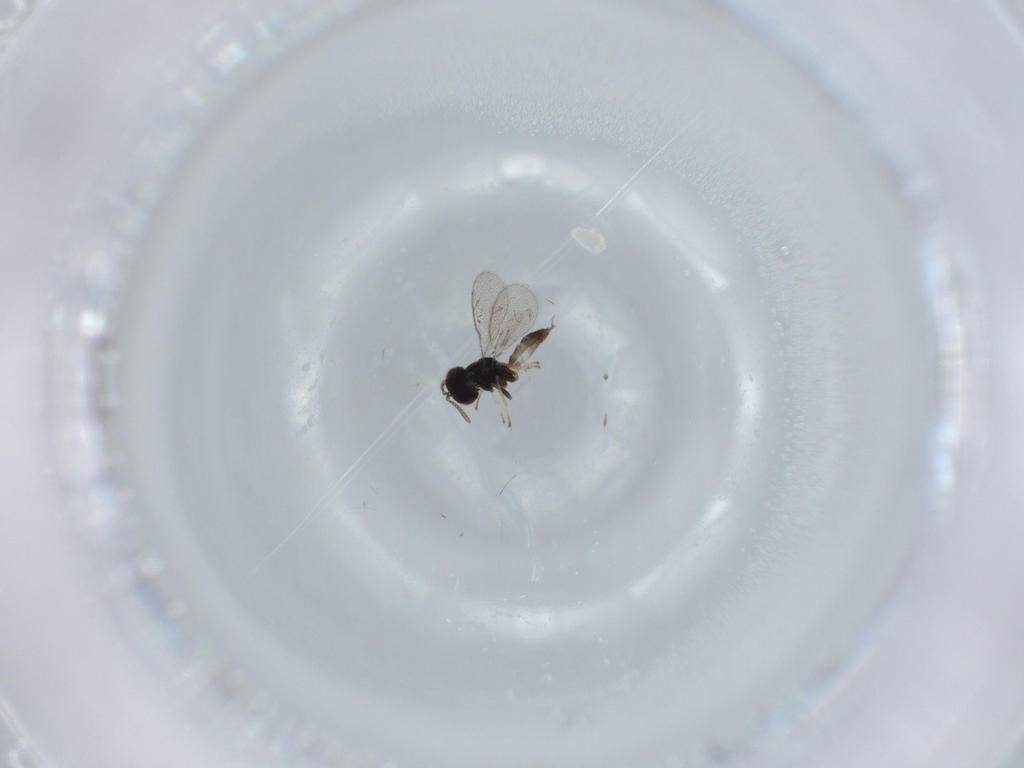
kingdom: Animalia
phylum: Arthropoda
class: Insecta
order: Hymenoptera
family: Pteromalidae
